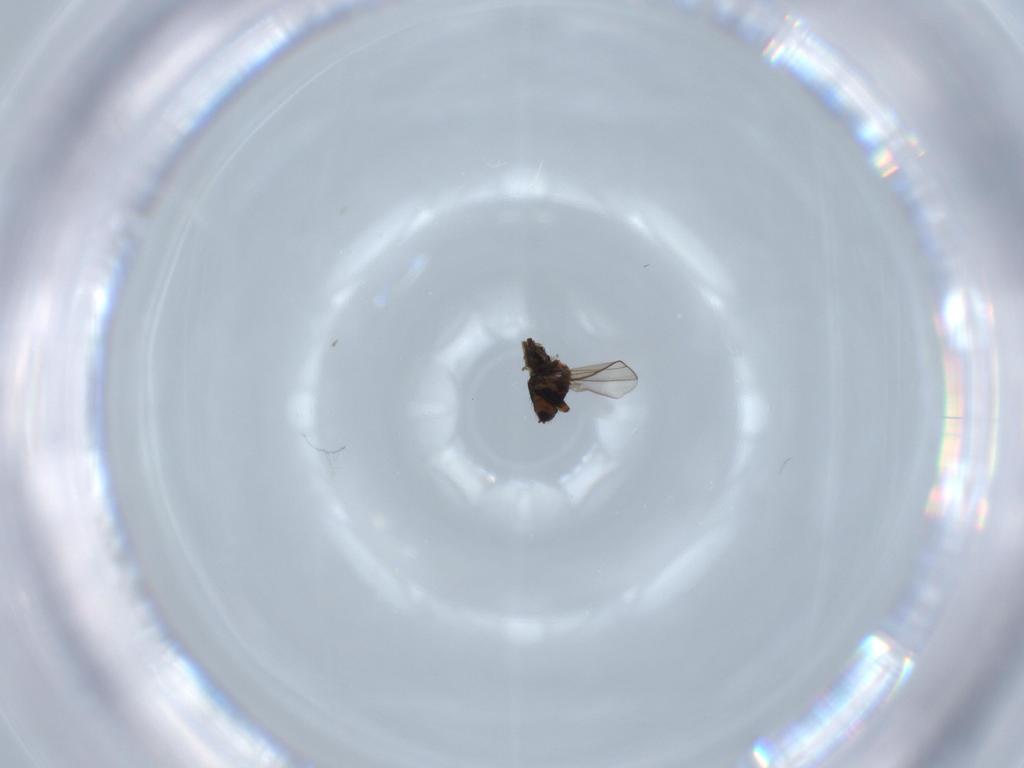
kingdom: Animalia
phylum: Arthropoda
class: Insecta
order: Diptera
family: Chloropidae
